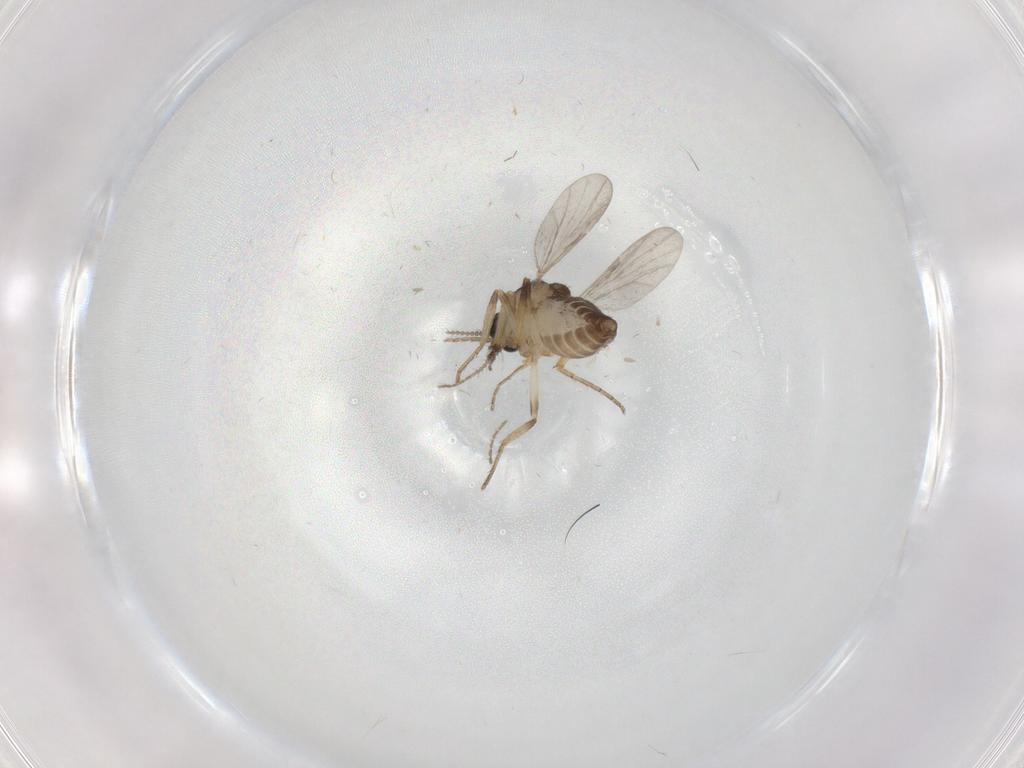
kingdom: Animalia
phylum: Arthropoda
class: Insecta
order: Diptera
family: Ceratopogonidae
